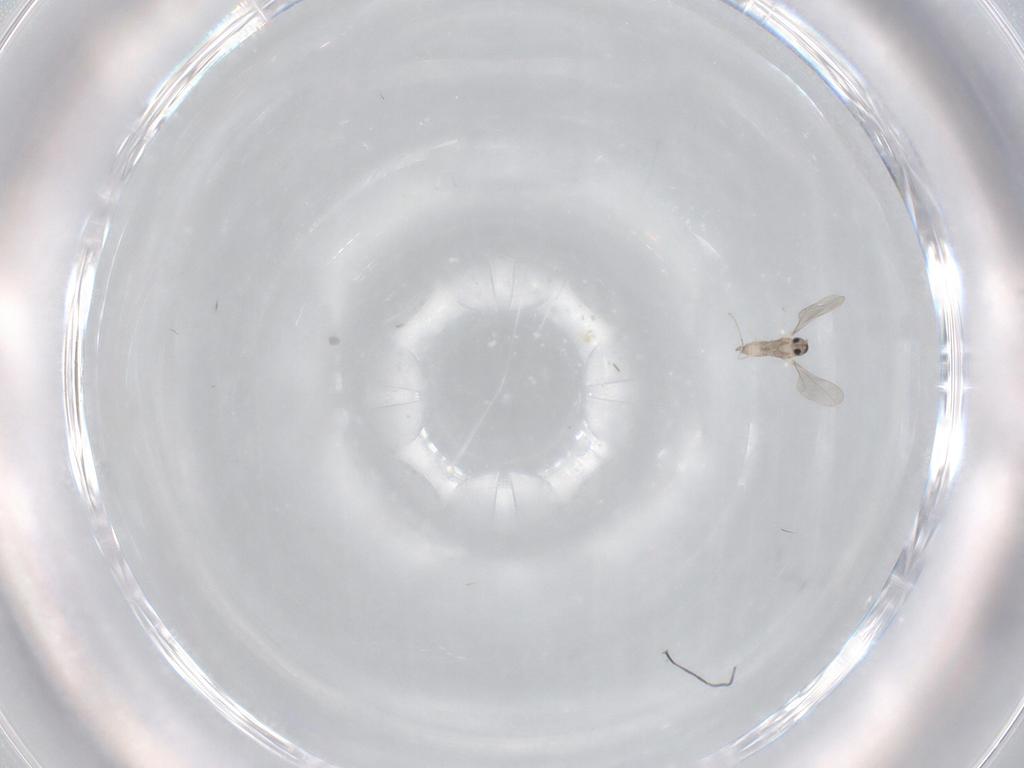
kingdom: Animalia
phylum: Arthropoda
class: Insecta
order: Diptera
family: Cecidomyiidae
